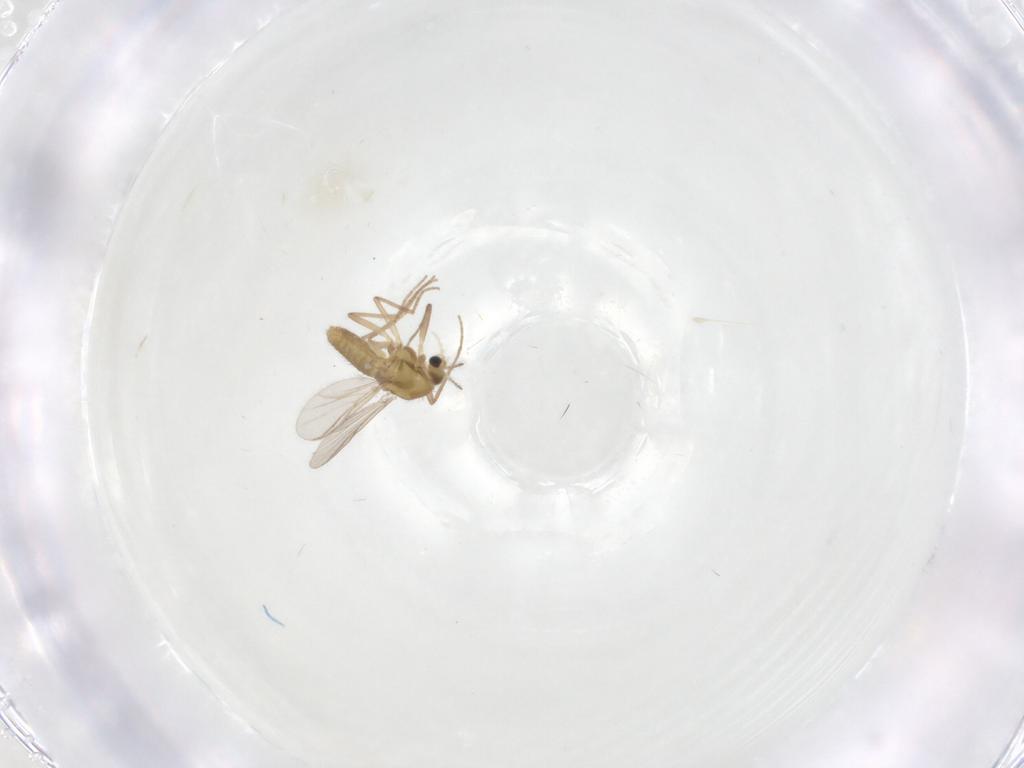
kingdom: Animalia
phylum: Arthropoda
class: Insecta
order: Diptera
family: Chironomidae
